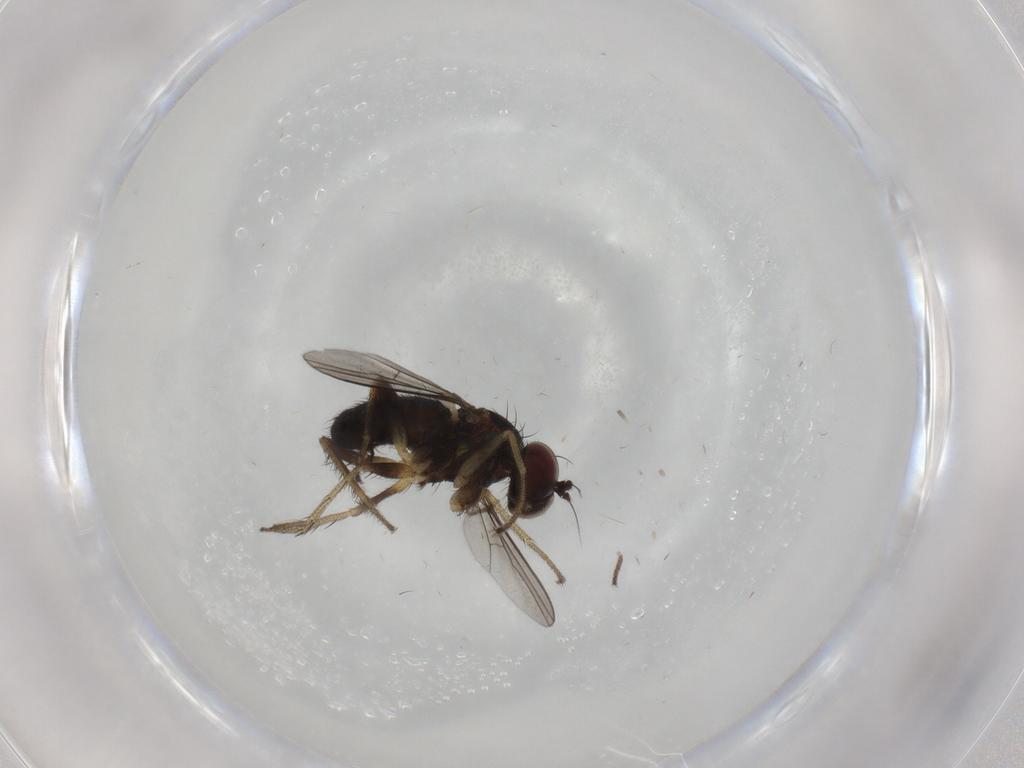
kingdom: Animalia
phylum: Arthropoda
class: Insecta
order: Diptera
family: Dolichopodidae
